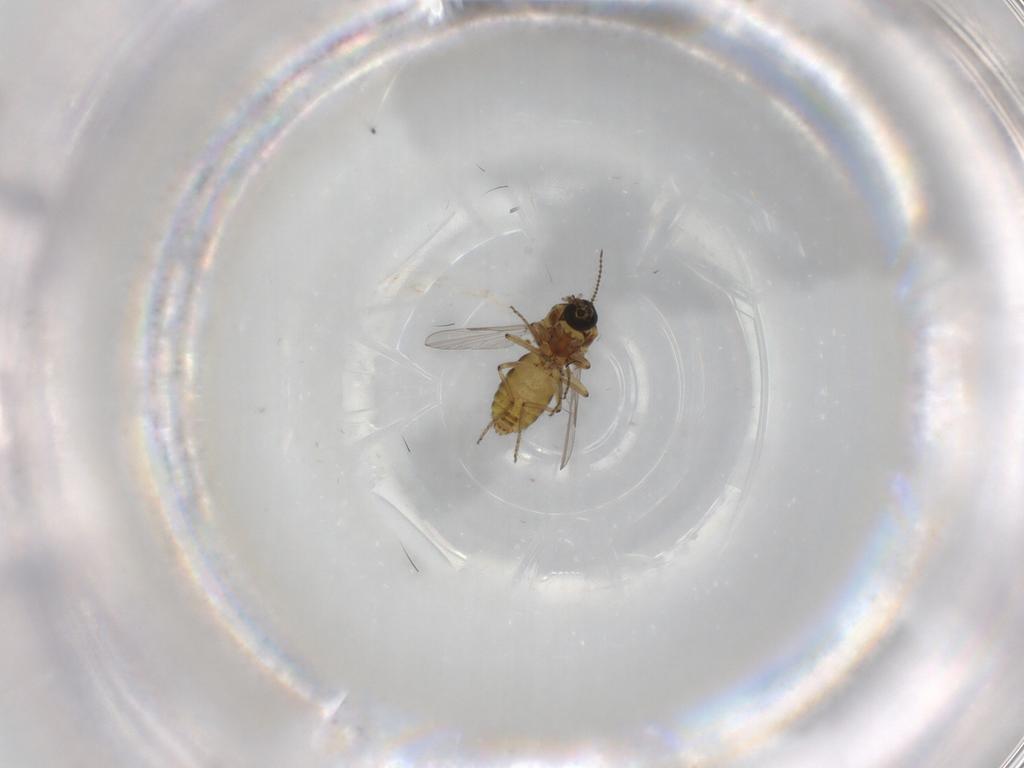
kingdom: Animalia
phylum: Arthropoda
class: Insecta
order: Diptera
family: Ceratopogonidae
